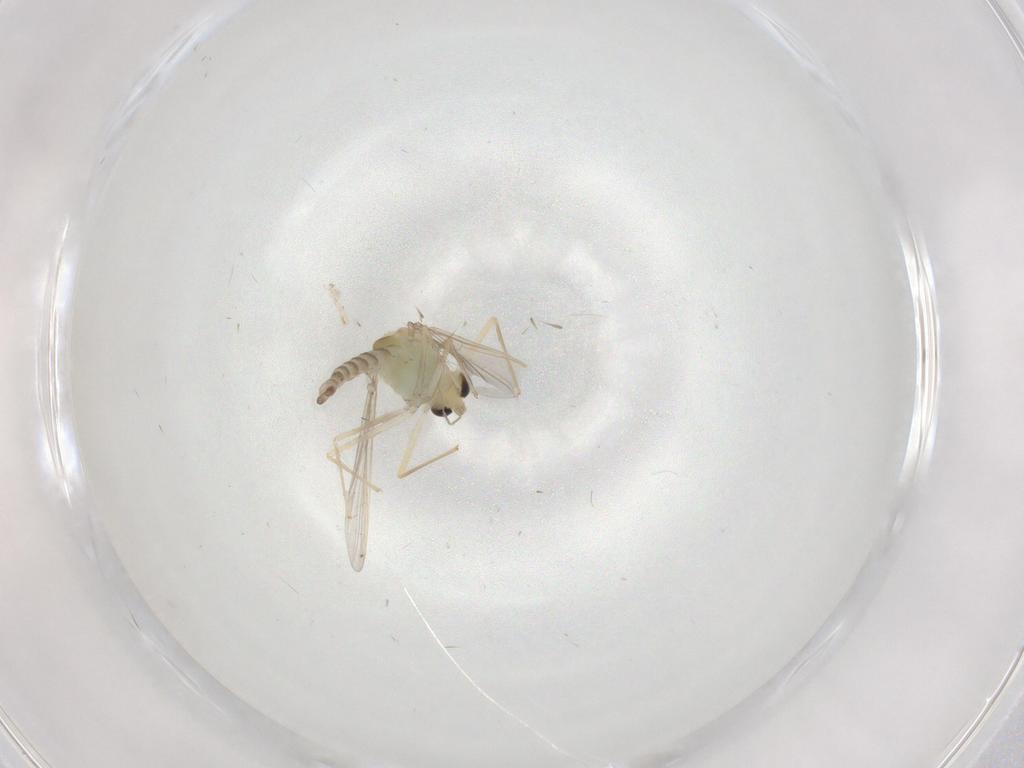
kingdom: Animalia
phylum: Arthropoda
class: Insecta
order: Diptera
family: Chironomidae
